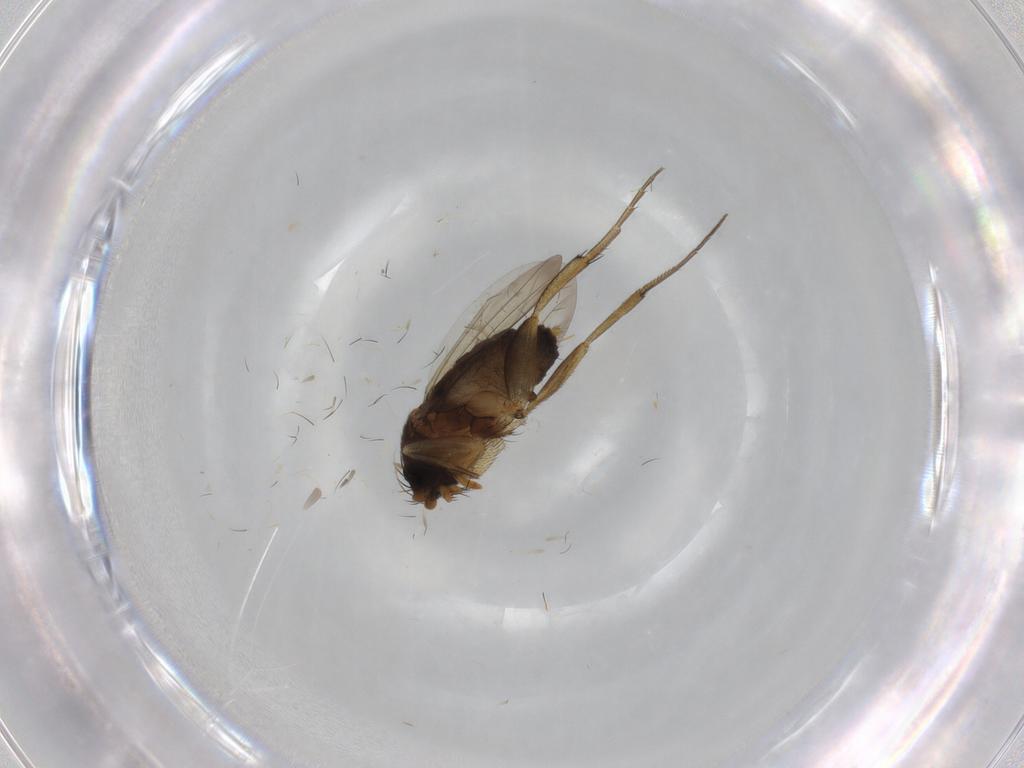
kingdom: Animalia
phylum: Arthropoda
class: Insecta
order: Diptera
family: Phoridae
